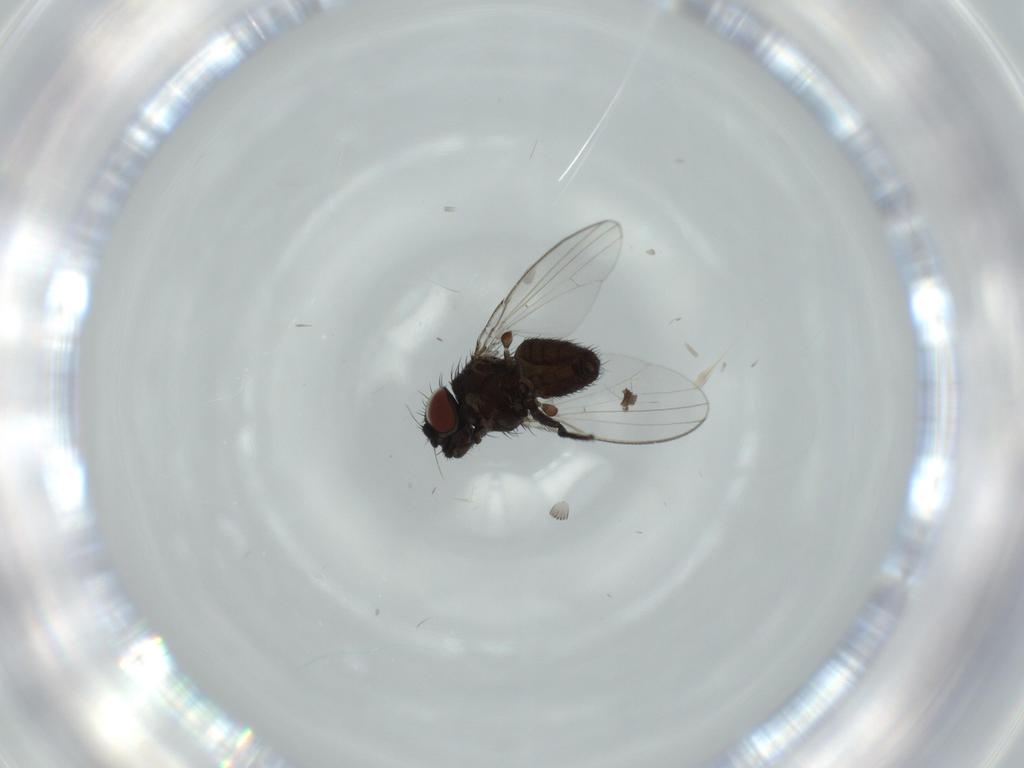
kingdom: Animalia
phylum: Arthropoda
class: Insecta
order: Diptera
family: Milichiidae
